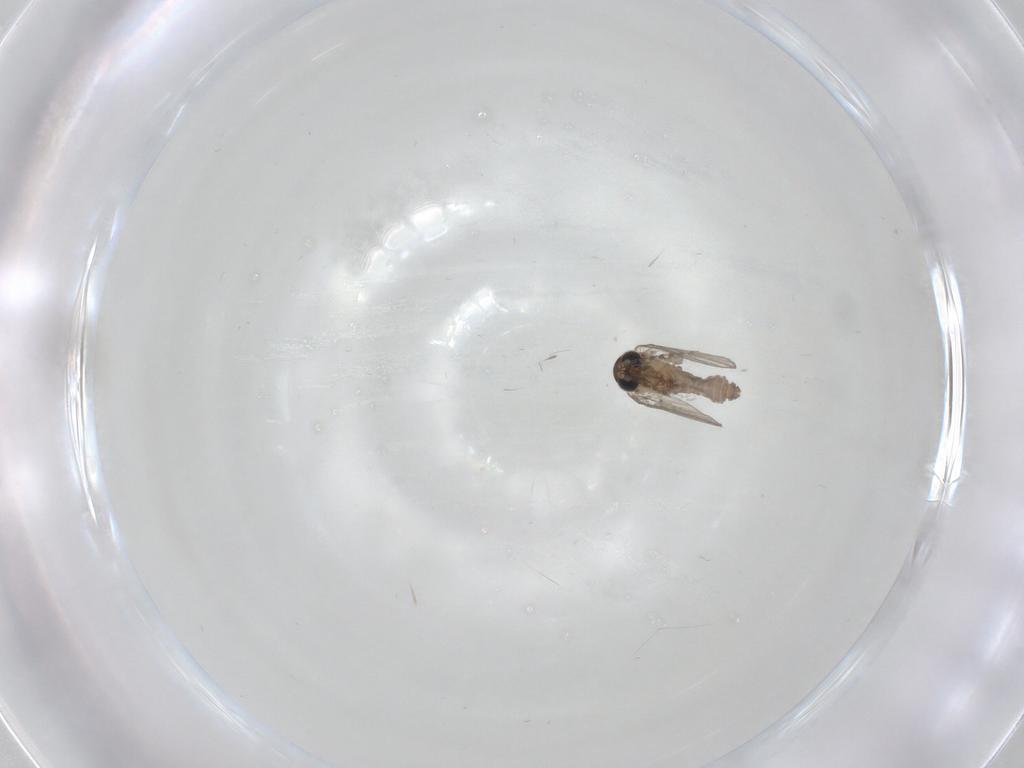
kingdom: Animalia
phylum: Arthropoda
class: Insecta
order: Diptera
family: Cecidomyiidae
